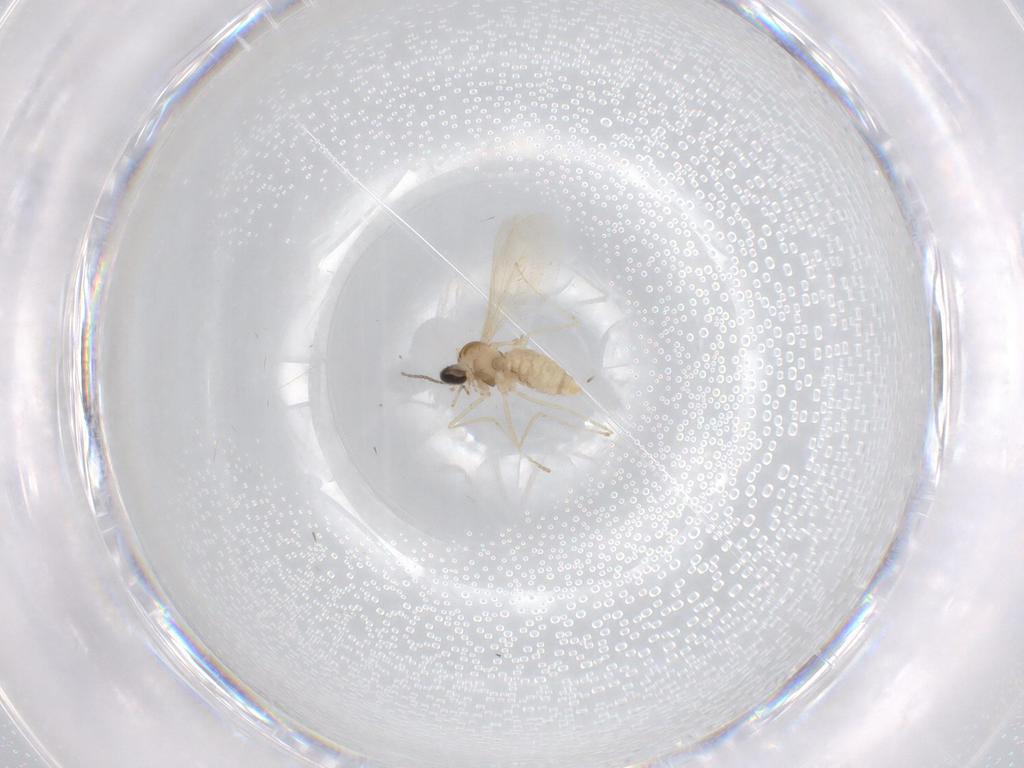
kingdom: Animalia
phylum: Arthropoda
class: Insecta
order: Diptera
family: Cecidomyiidae
